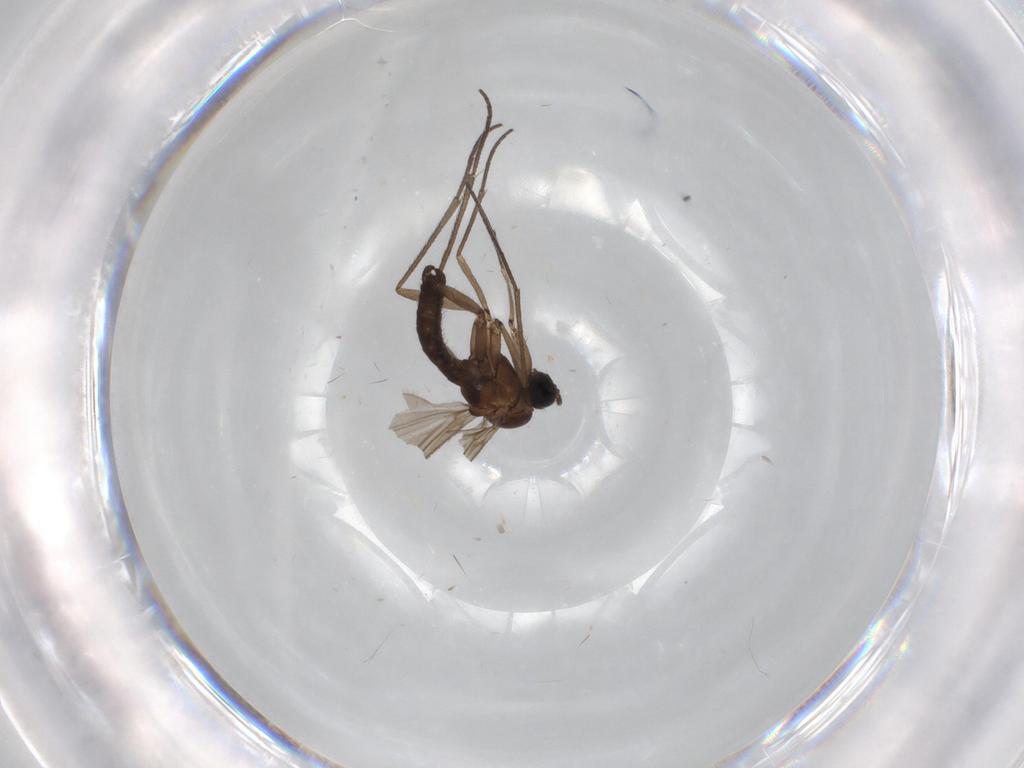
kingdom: Animalia
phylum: Arthropoda
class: Insecta
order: Diptera
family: Sciaridae
